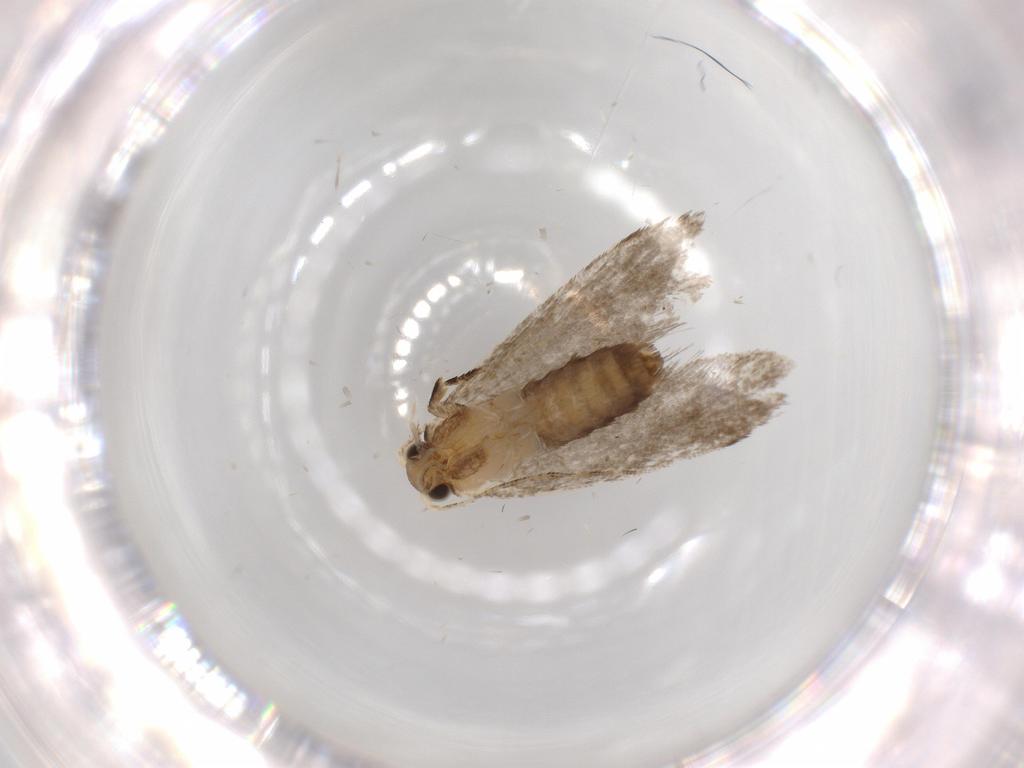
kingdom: Animalia
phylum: Arthropoda
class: Insecta
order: Lepidoptera
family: Tineidae
